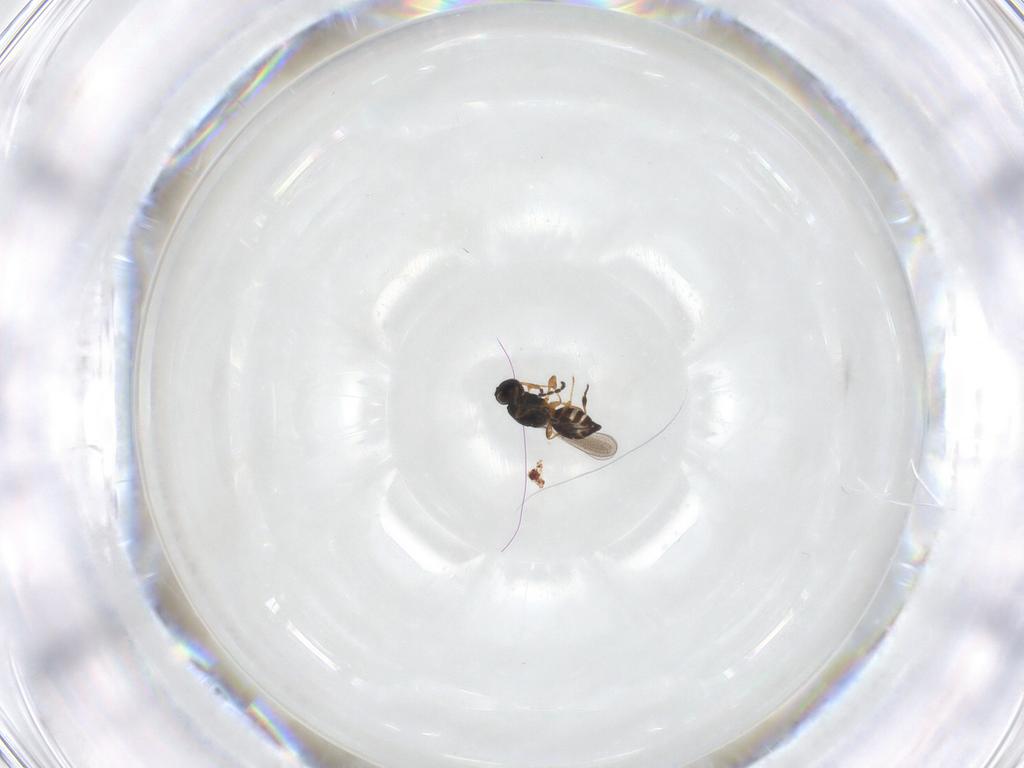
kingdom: Animalia
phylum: Arthropoda
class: Insecta
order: Hymenoptera
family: Platygastridae
